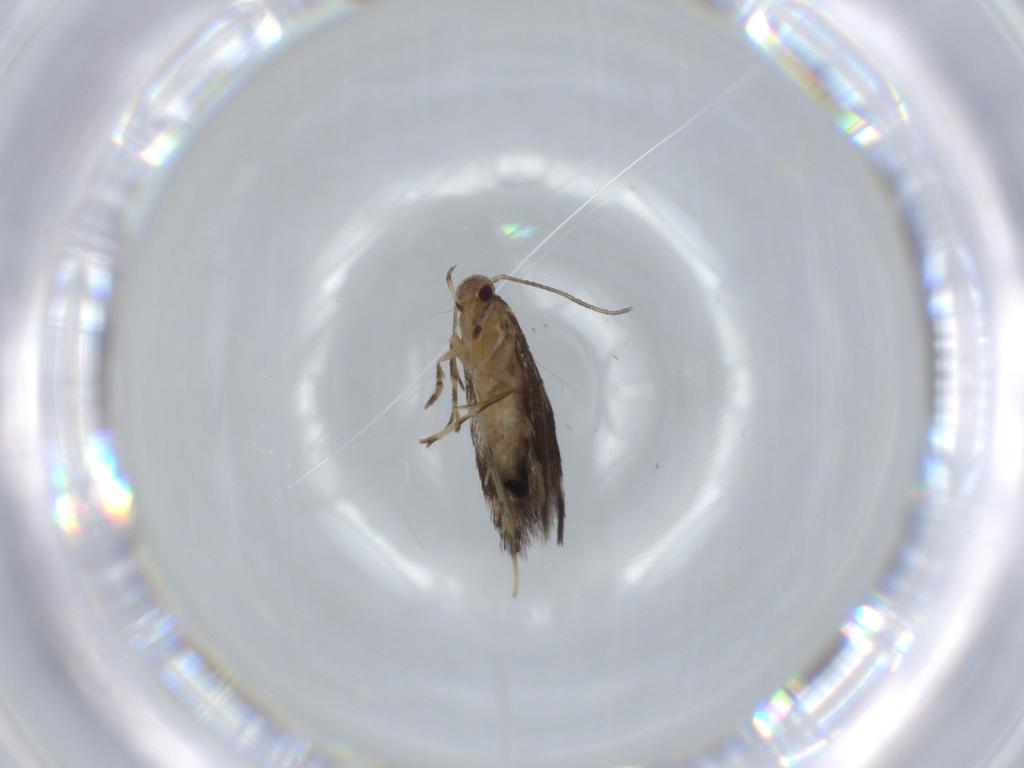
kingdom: Animalia
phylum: Arthropoda
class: Insecta
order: Lepidoptera
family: Cosmopterigidae
